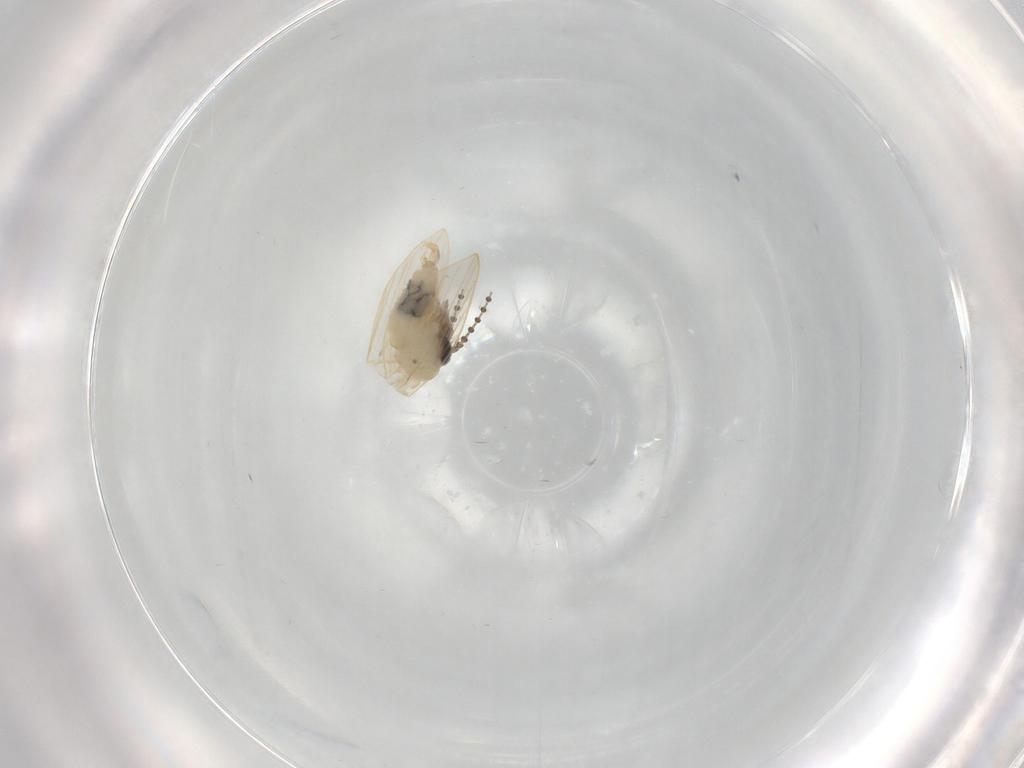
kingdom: Animalia
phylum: Arthropoda
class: Insecta
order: Diptera
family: Psychodidae
